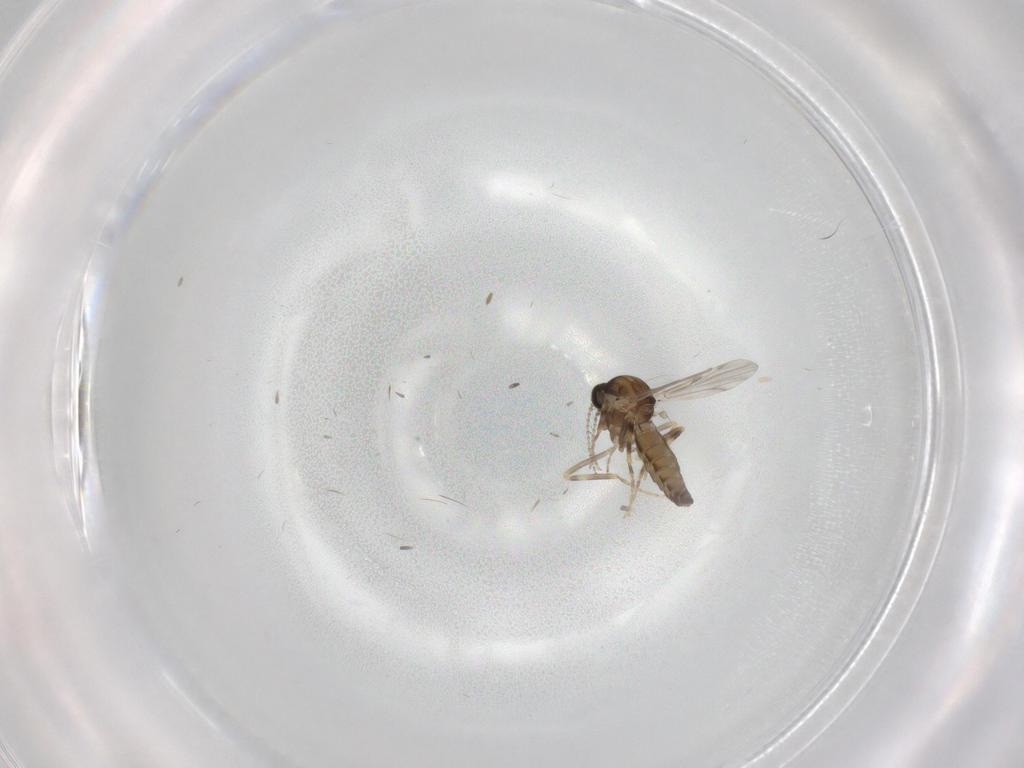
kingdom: Animalia
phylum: Arthropoda
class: Insecta
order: Diptera
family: Ceratopogonidae
